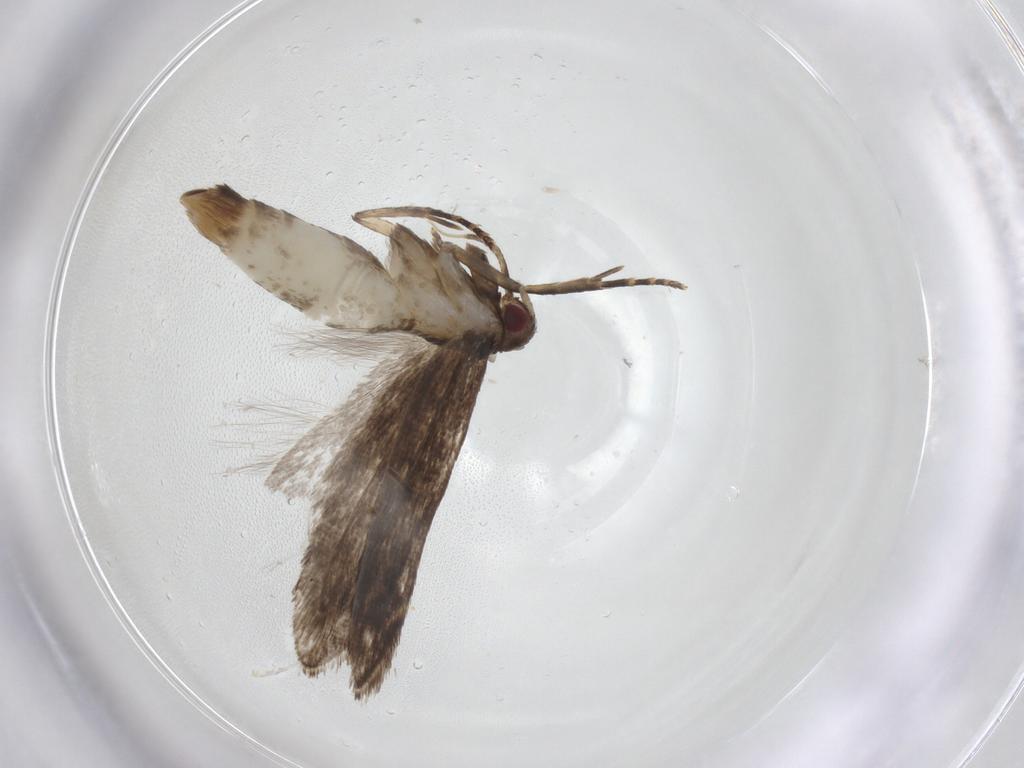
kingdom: Animalia
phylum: Arthropoda
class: Insecta
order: Lepidoptera
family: Gelechiidae
